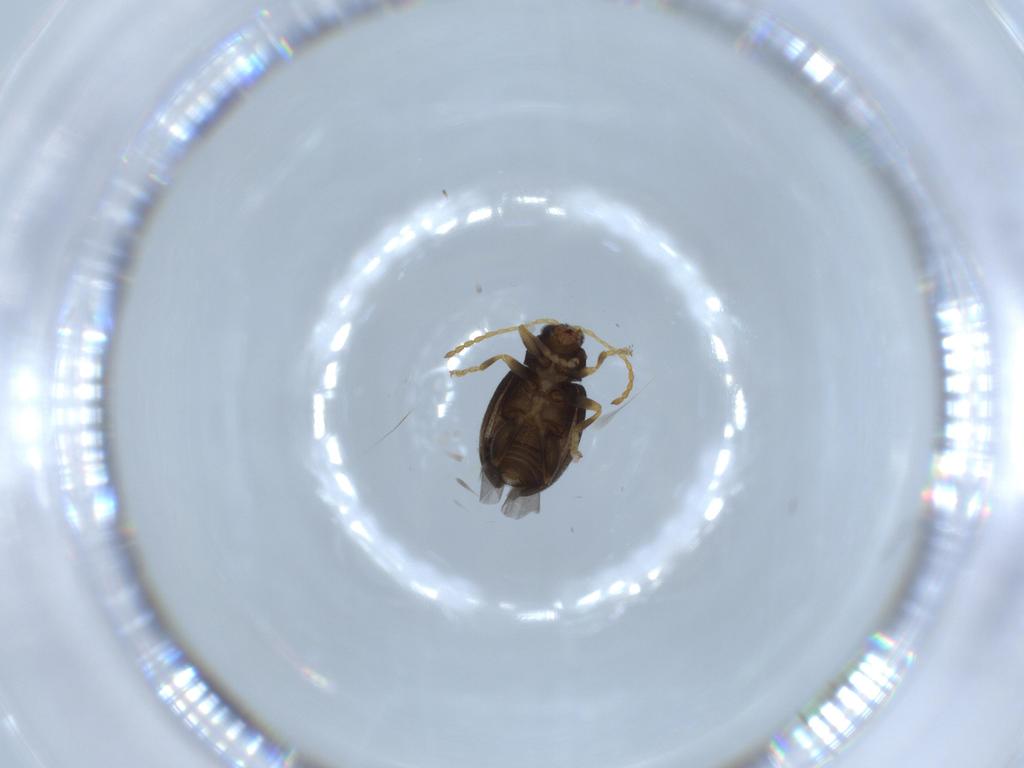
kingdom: Animalia
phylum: Arthropoda
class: Insecta
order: Coleoptera
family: Chrysomelidae
